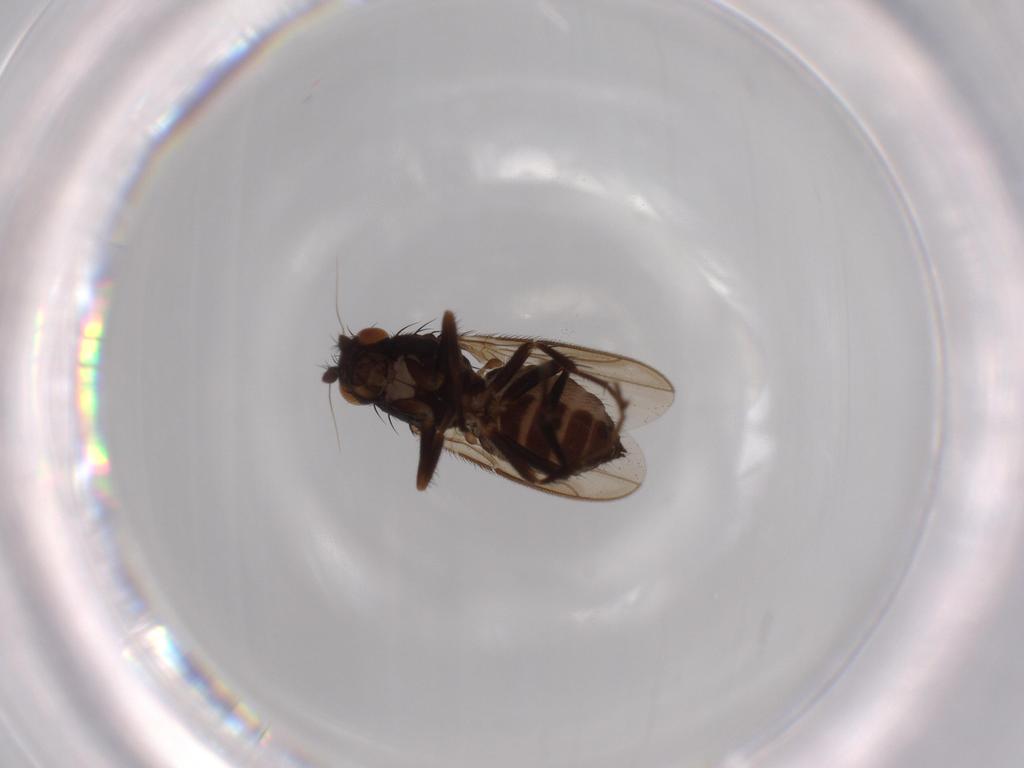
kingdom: Animalia
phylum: Arthropoda
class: Insecta
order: Diptera
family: Sphaeroceridae
